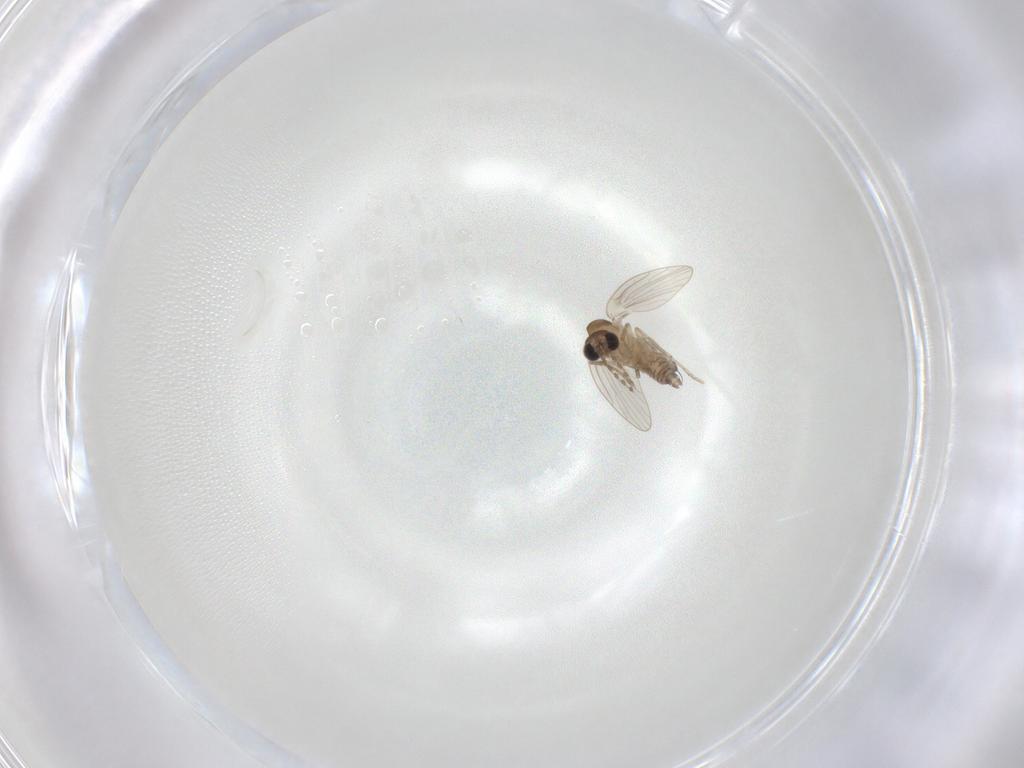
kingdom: Animalia
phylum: Arthropoda
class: Insecta
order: Diptera
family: Psychodidae
